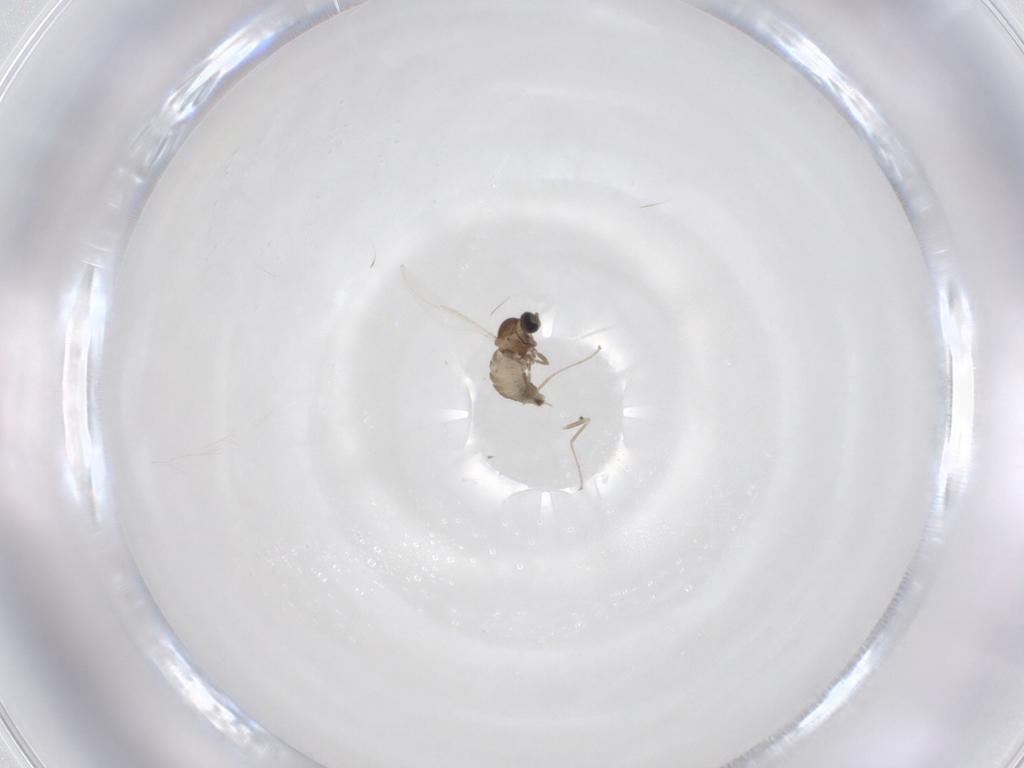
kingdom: Animalia
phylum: Arthropoda
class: Insecta
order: Diptera
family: Cecidomyiidae
